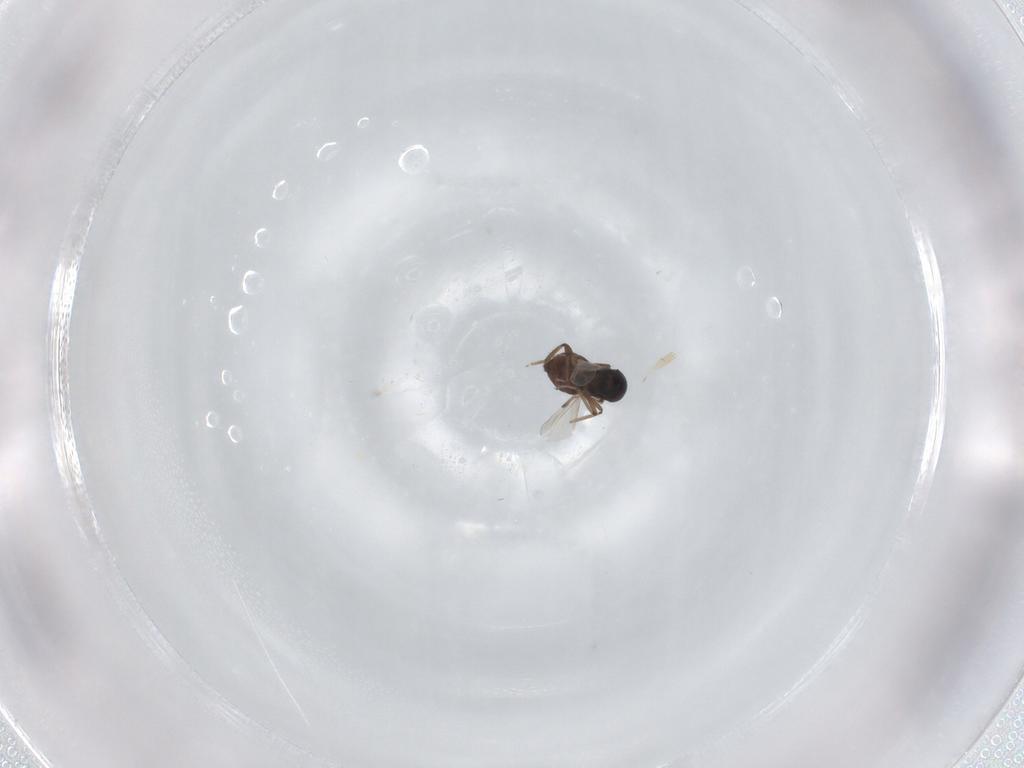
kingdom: Animalia
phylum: Arthropoda
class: Insecta
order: Diptera
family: Ceratopogonidae
